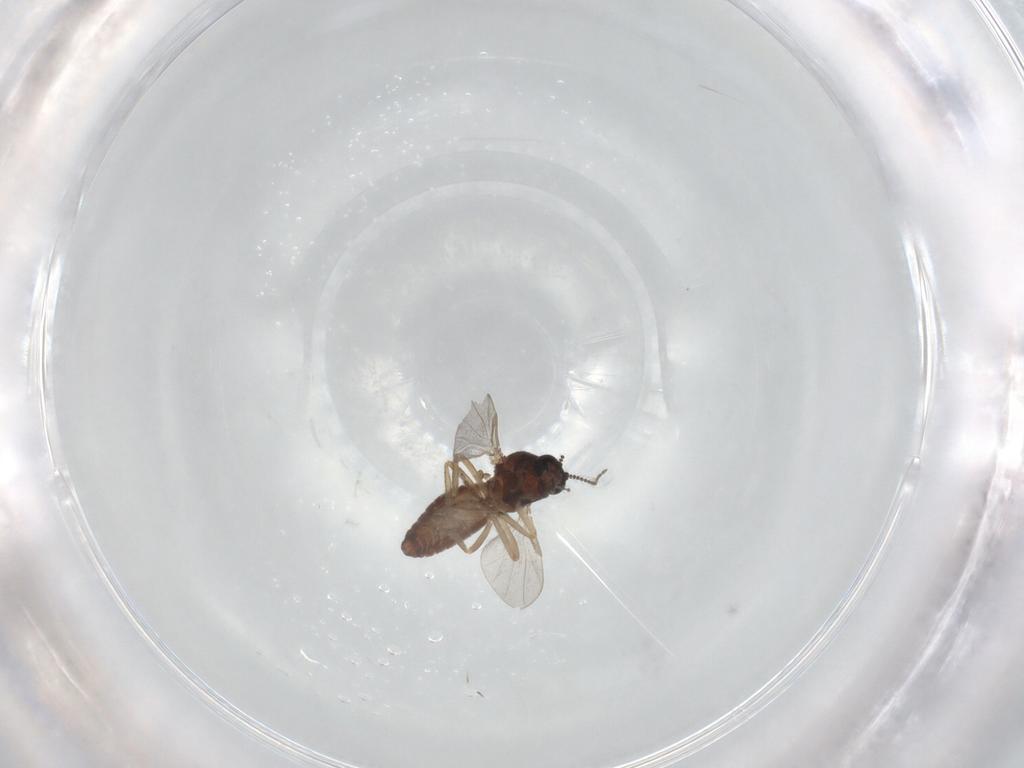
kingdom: Animalia
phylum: Arthropoda
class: Insecta
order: Diptera
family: Ceratopogonidae
